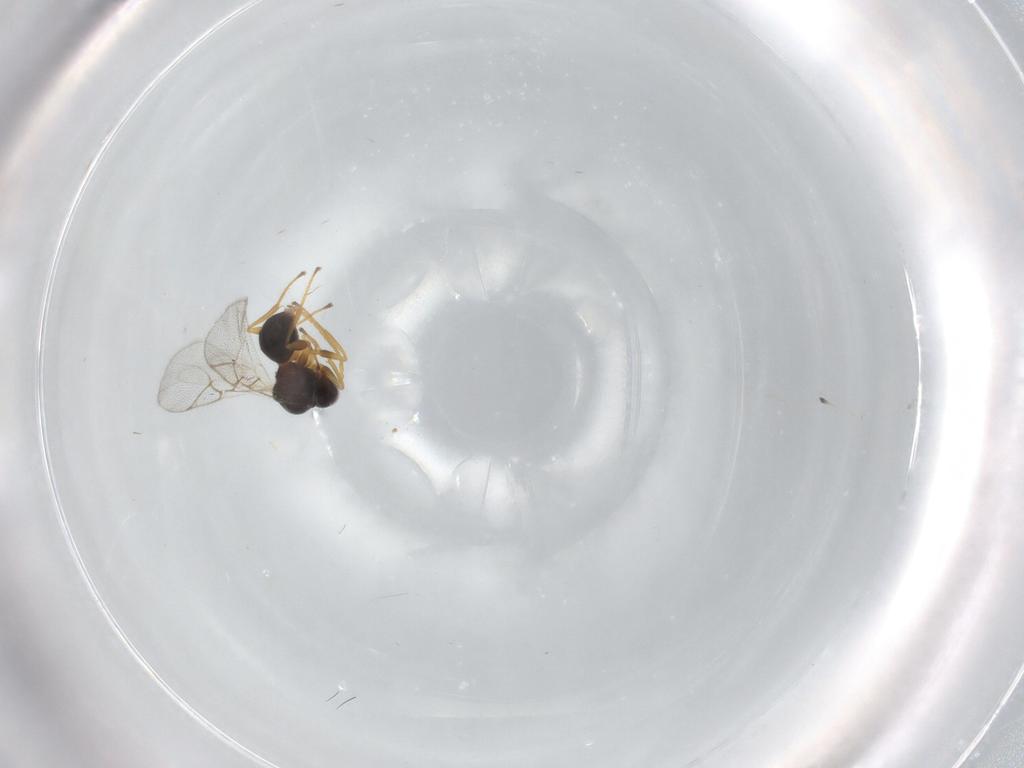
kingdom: Animalia
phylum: Arthropoda
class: Insecta
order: Hymenoptera
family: Figitidae
